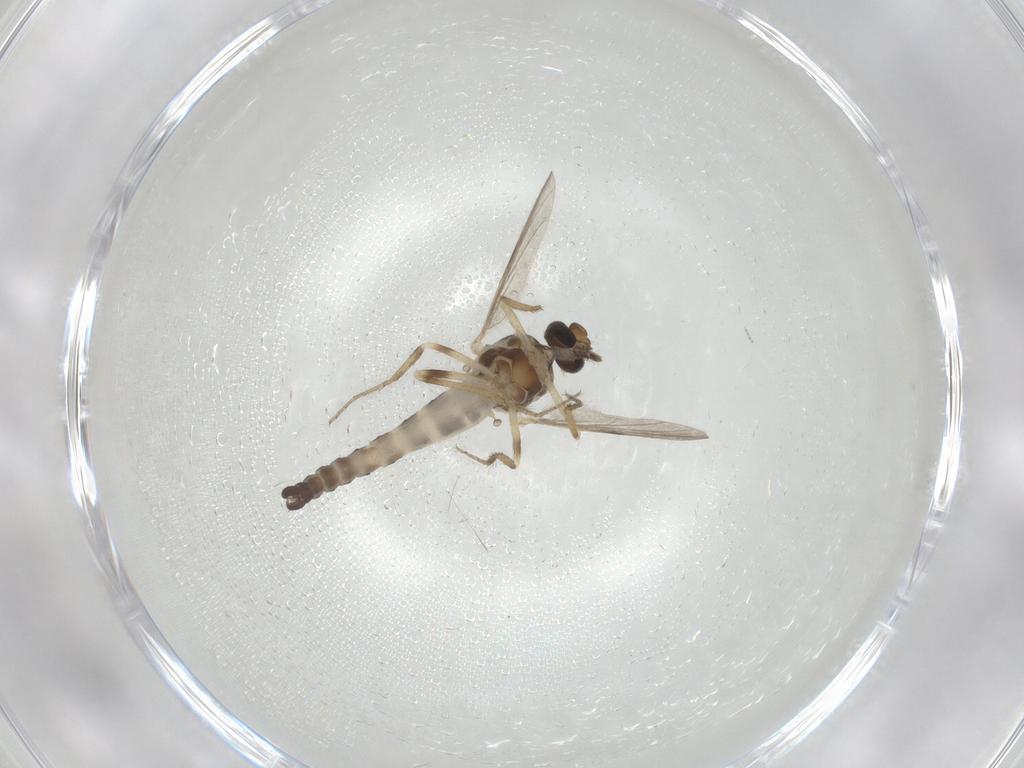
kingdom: Animalia
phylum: Arthropoda
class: Insecta
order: Diptera
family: Ceratopogonidae
